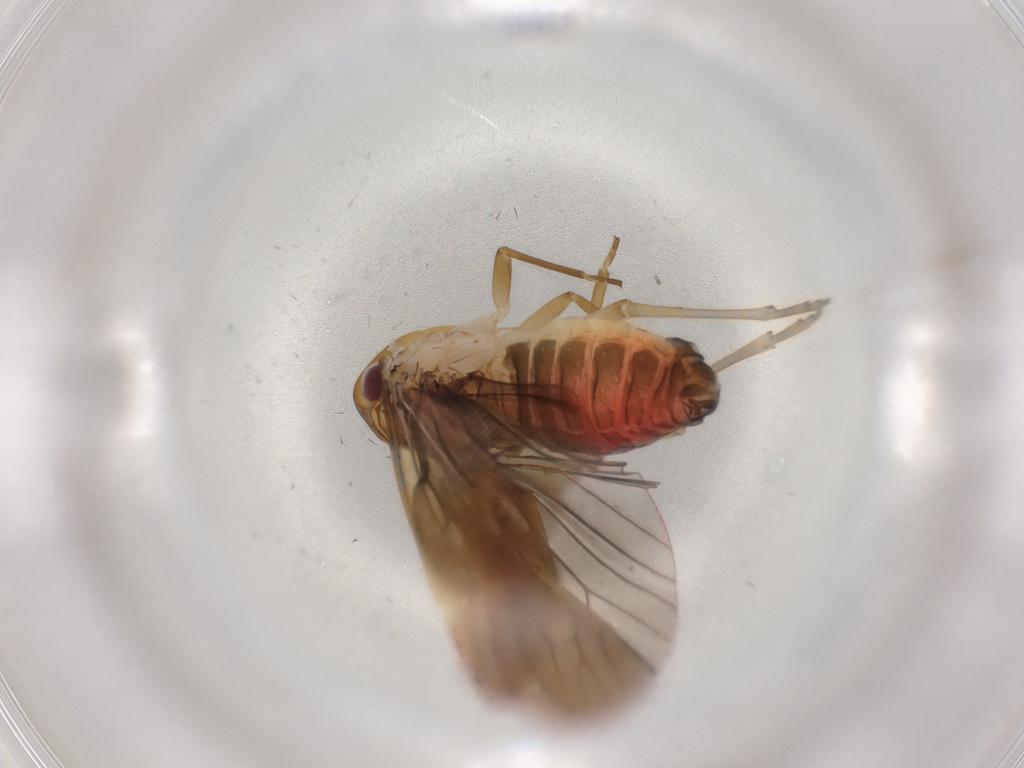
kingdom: Animalia
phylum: Arthropoda
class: Insecta
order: Hemiptera
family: Achilidae
